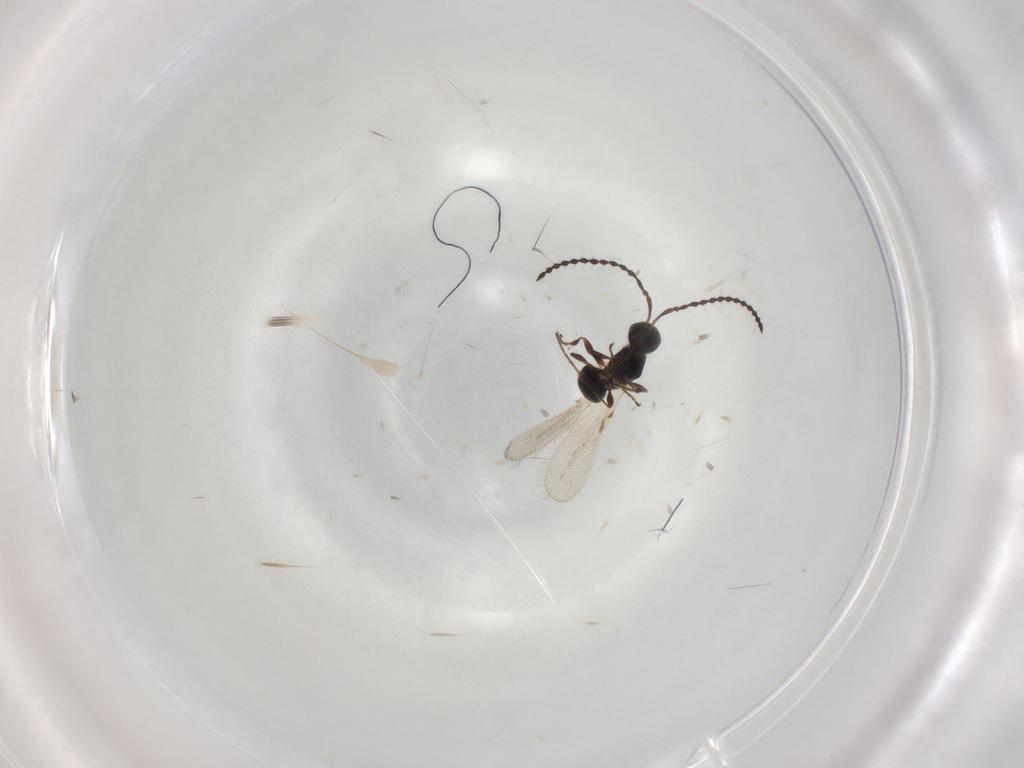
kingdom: Animalia
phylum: Arthropoda
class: Insecta
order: Hymenoptera
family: Diapriidae
